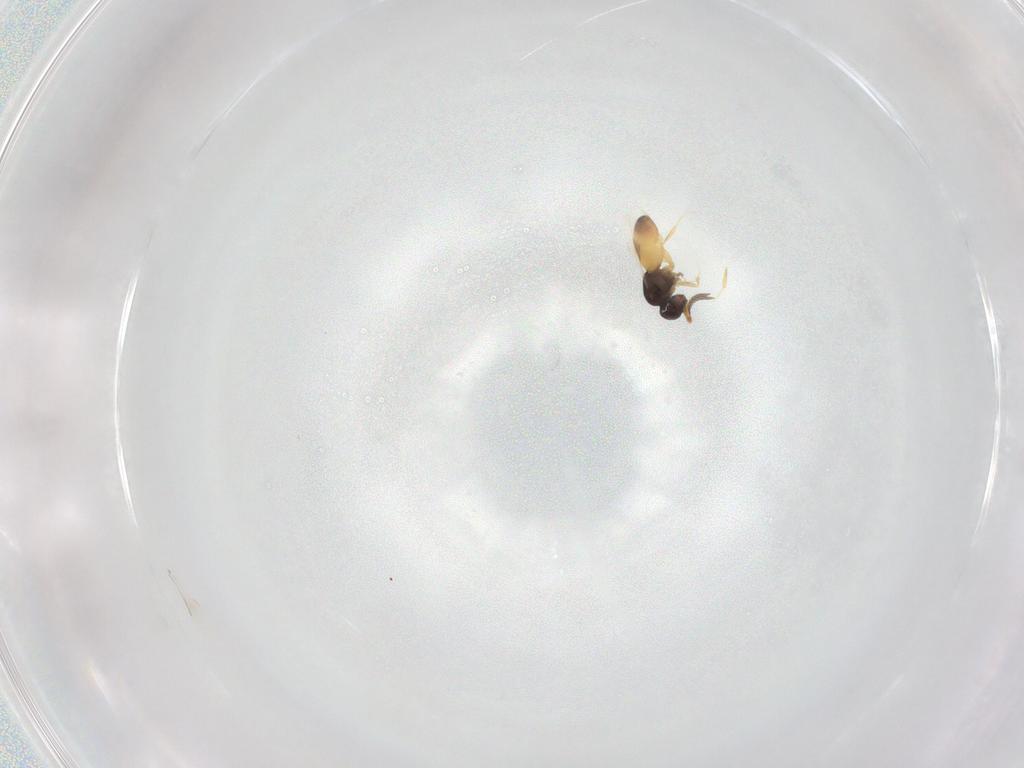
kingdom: Animalia
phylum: Arthropoda
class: Insecta
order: Hymenoptera
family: Ichneumonidae
